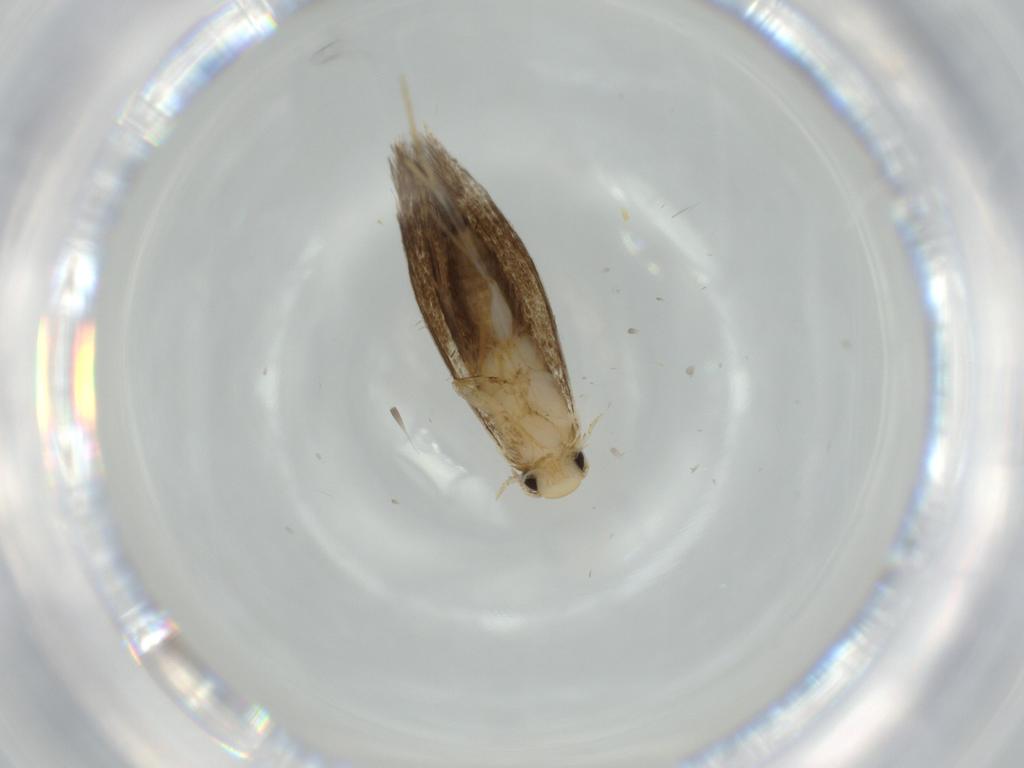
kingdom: Animalia
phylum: Arthropoda
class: Insecta
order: Lepidoptera
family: Tineidae
